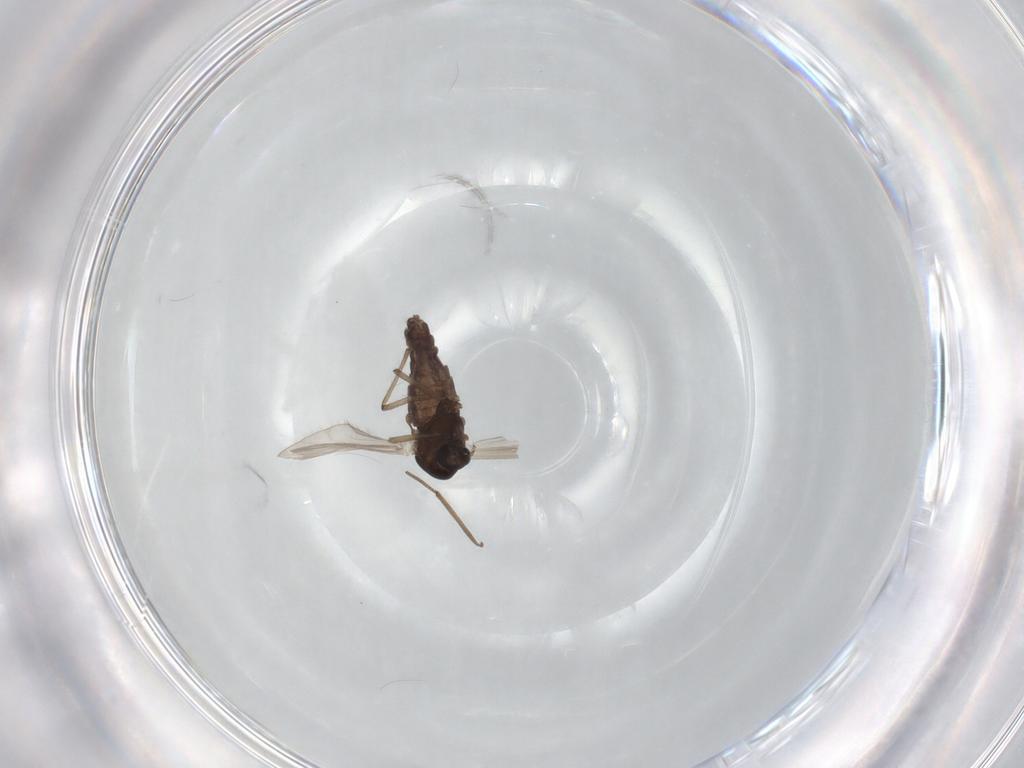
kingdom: Animalia
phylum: Arthropoda
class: Insecta
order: Diptera
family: Chironomidae
